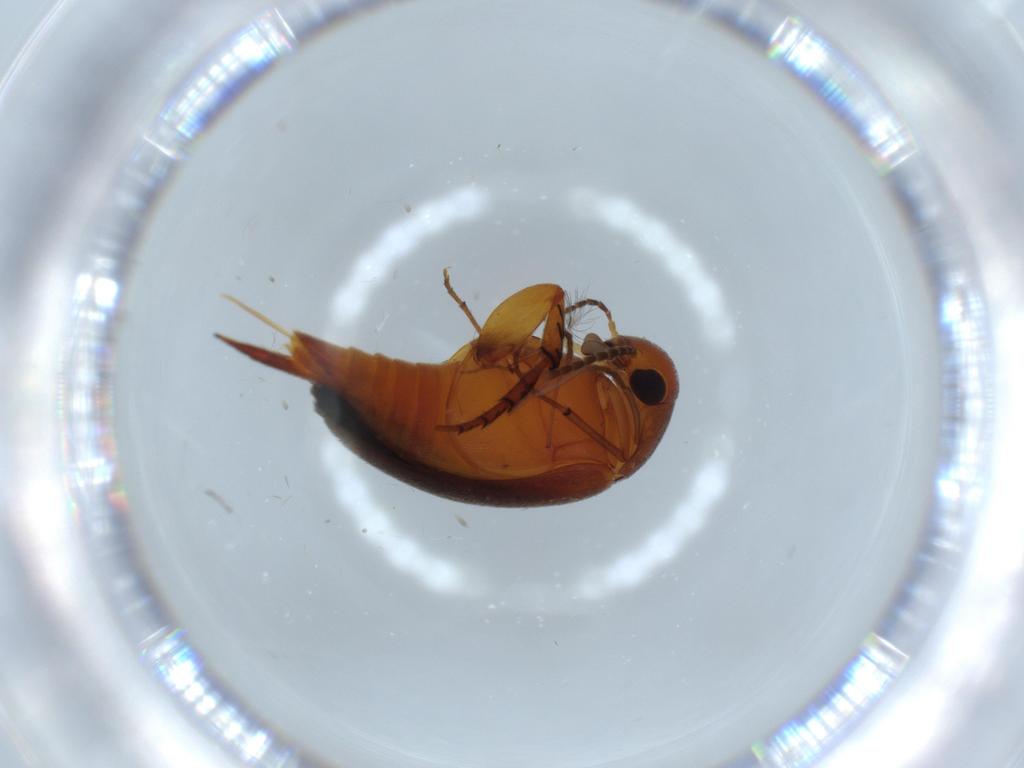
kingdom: Animalia
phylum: Arthropoda
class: Insecta
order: Coleoptera
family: Mordellidae
